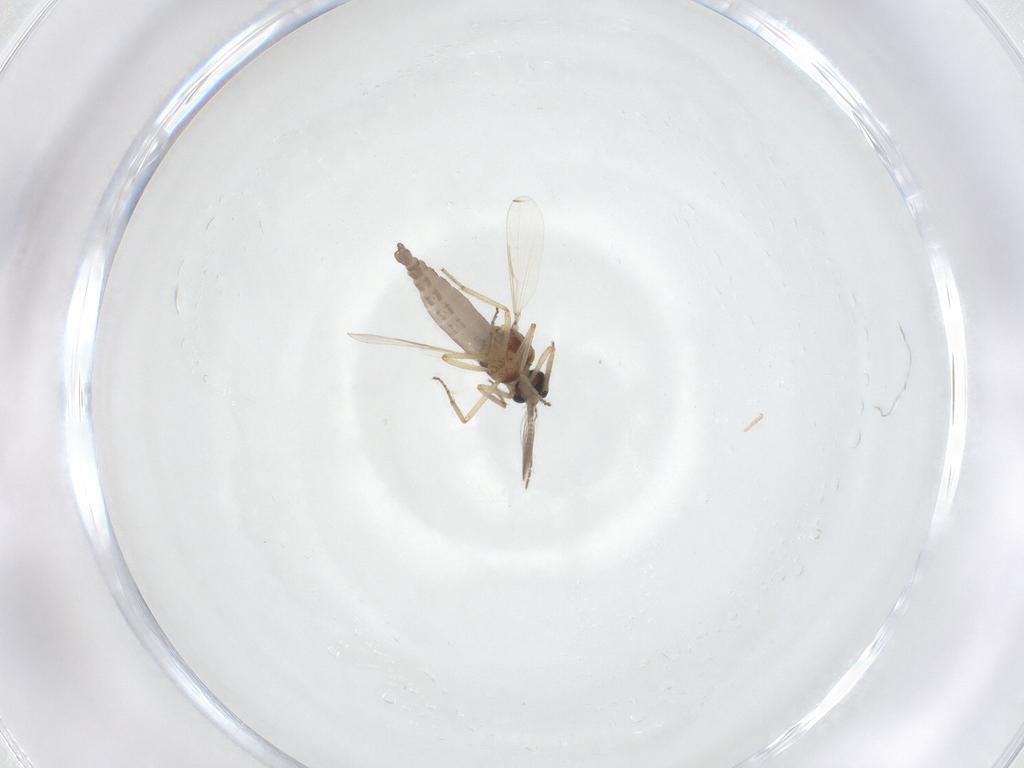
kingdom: Animalia
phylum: Arthropoda
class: Insecta
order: Diptera
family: Ceratopogonidae
